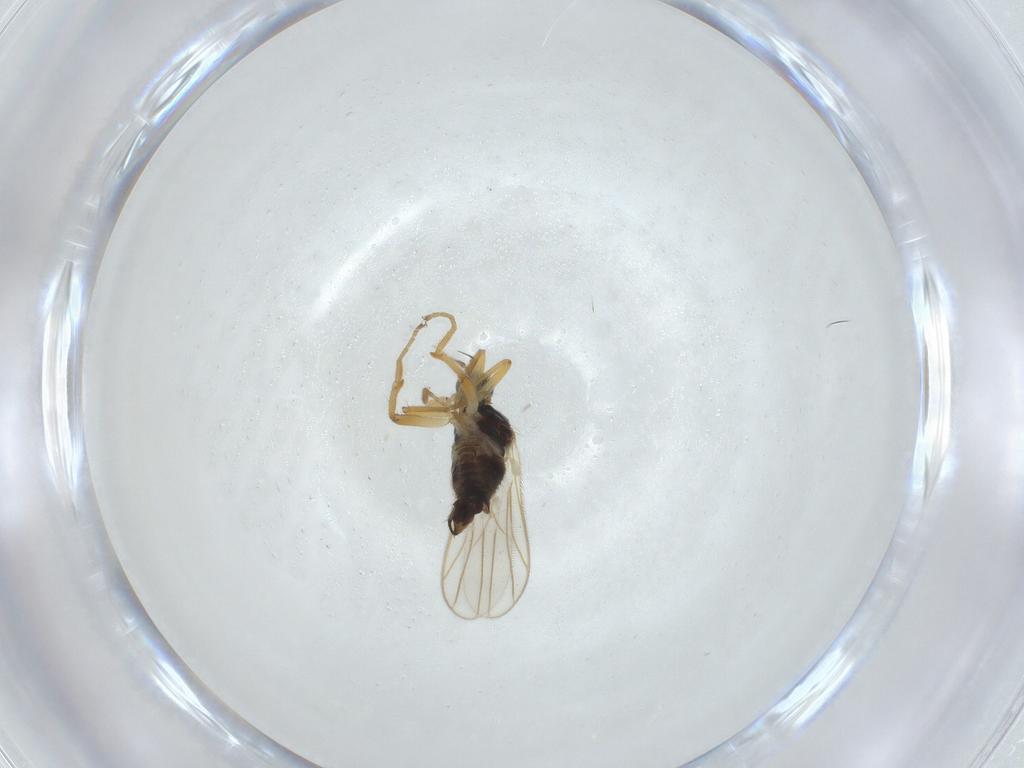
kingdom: Animalia
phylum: Arthropoda
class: Insecta
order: Diptera
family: Hybotidae
